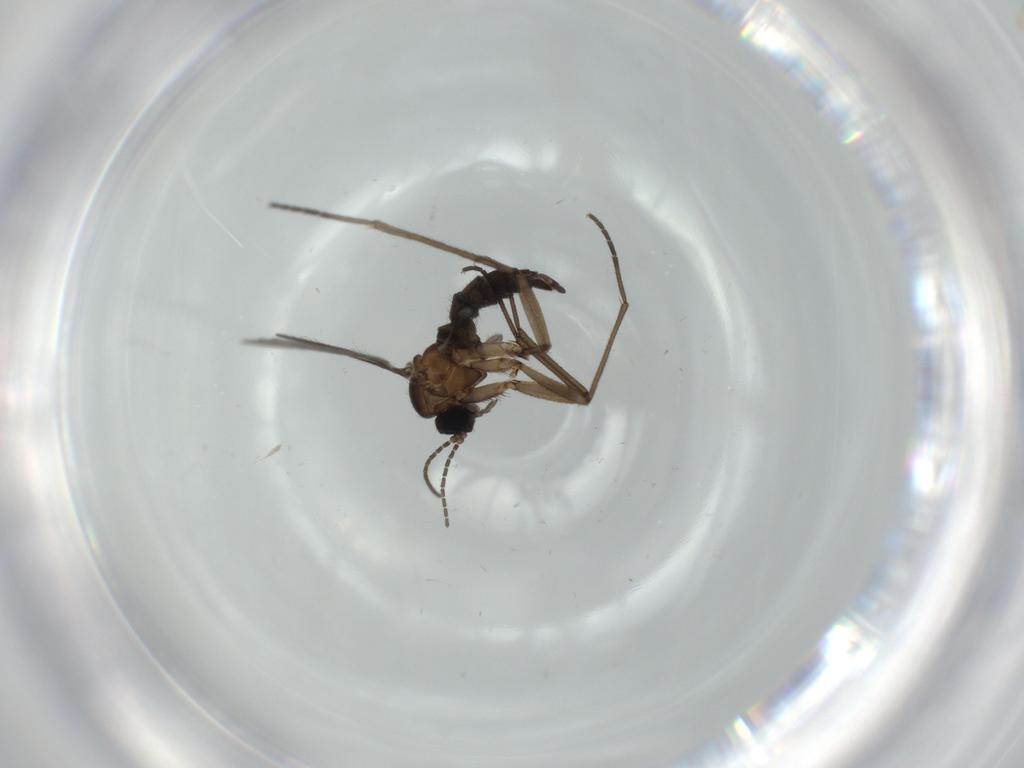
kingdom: Animalia
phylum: Arthropoda
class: Insecta
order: Diptera
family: Sciaridae
